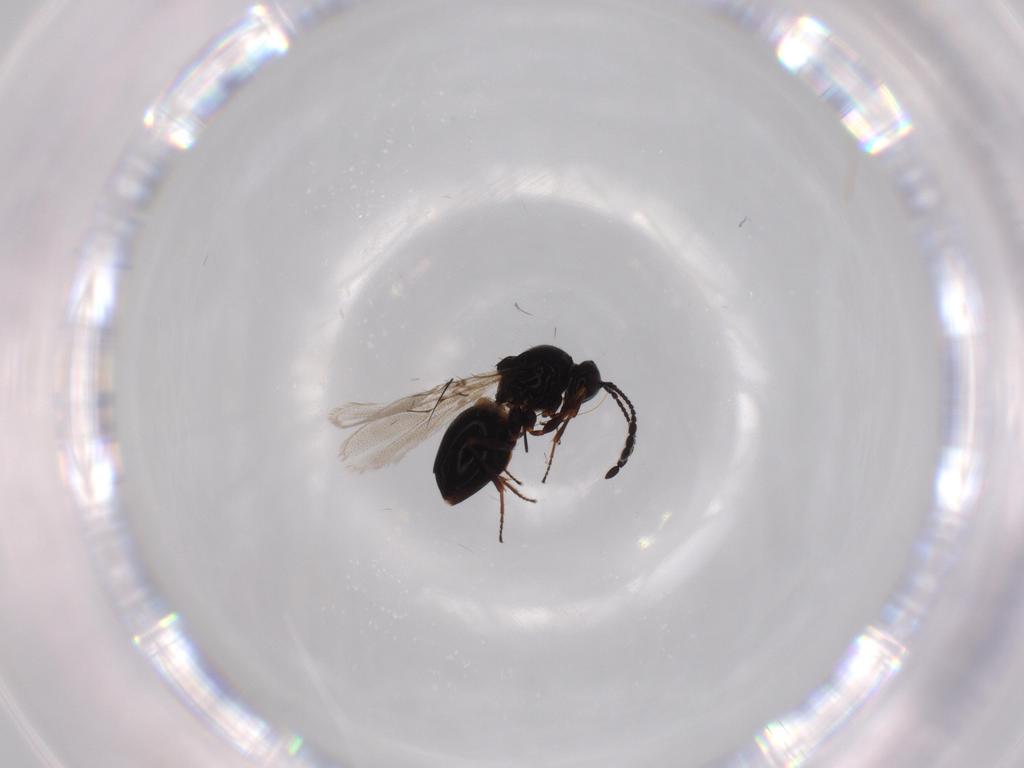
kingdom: Animalia
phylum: Arthropoda
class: Insecta
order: Hymenoptera
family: Figitidae
